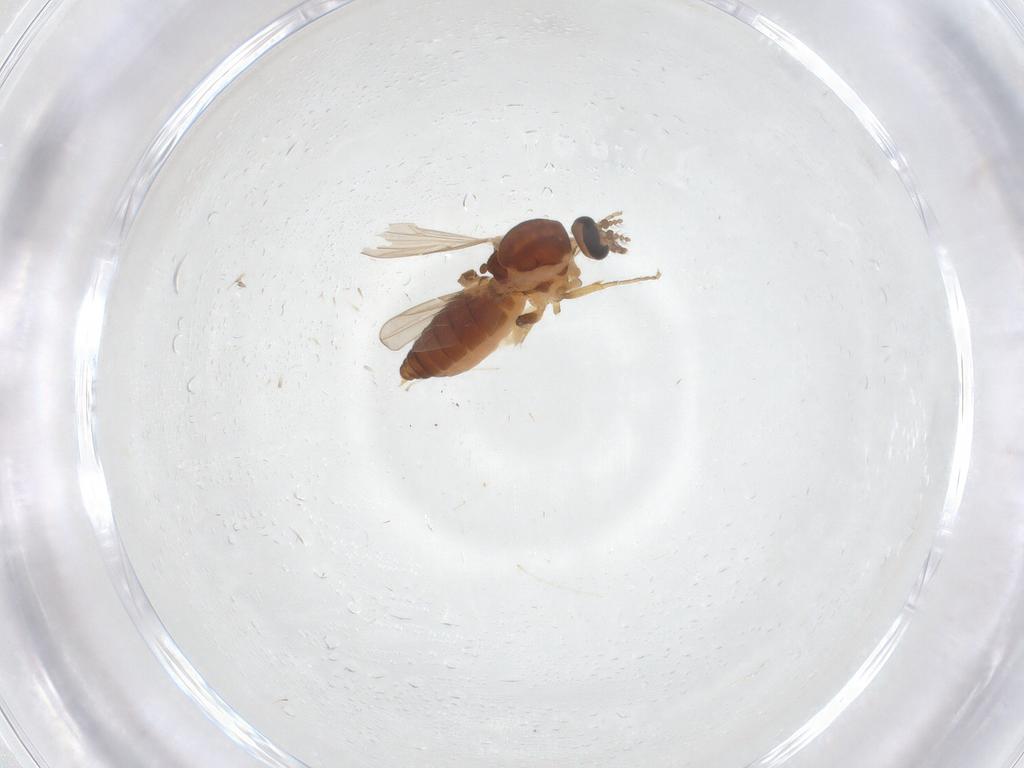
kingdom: Animalia
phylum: Arthropoda
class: Insecta
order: Diptera
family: Ceratopogonidae
